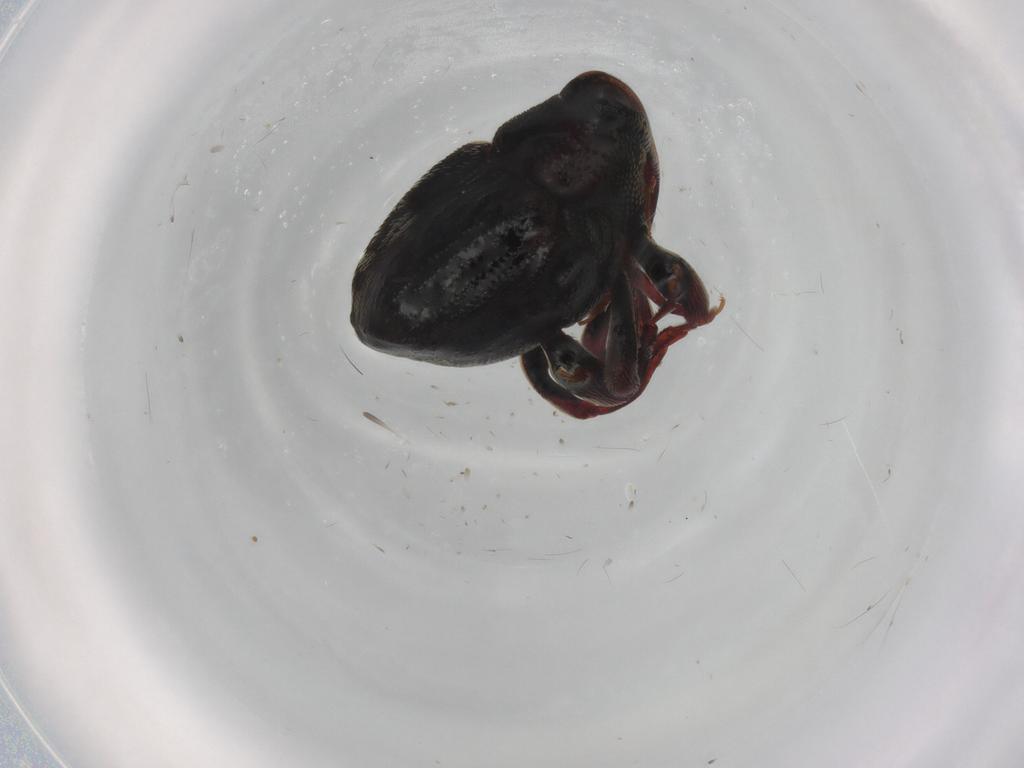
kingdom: Animalia
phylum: Arthropoda
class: Insecta
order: Coleoptera
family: Curculionidae
